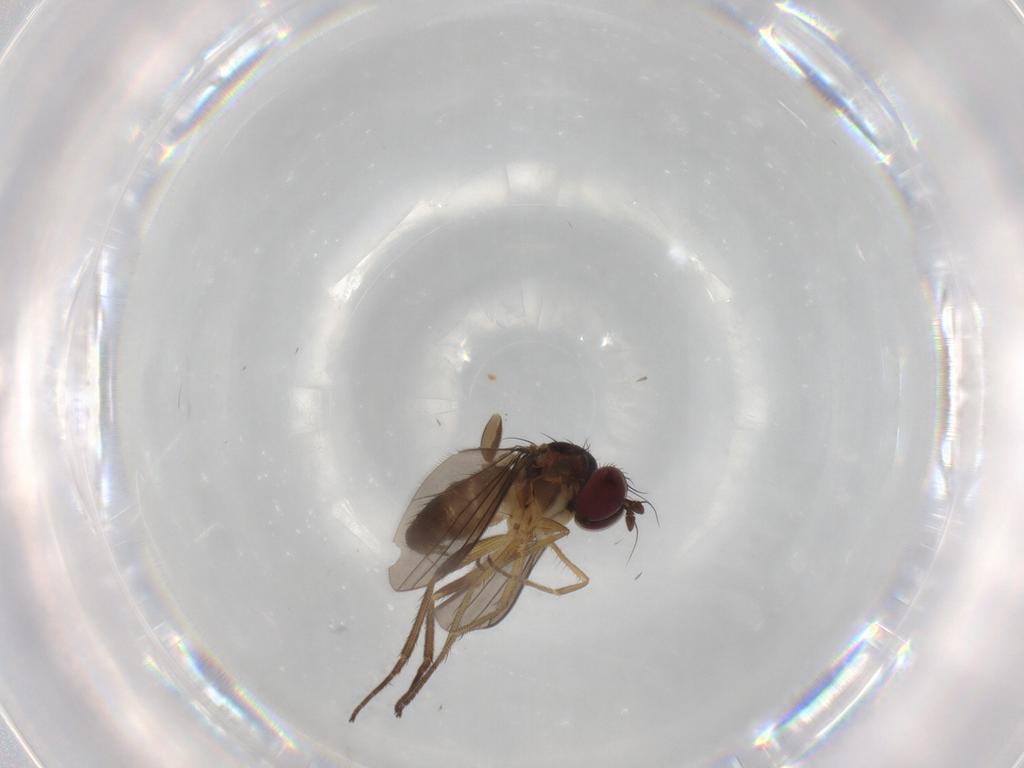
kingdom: Animalia
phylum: Arthropoda
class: Insecta
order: Diptera
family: Dolichopodidae
